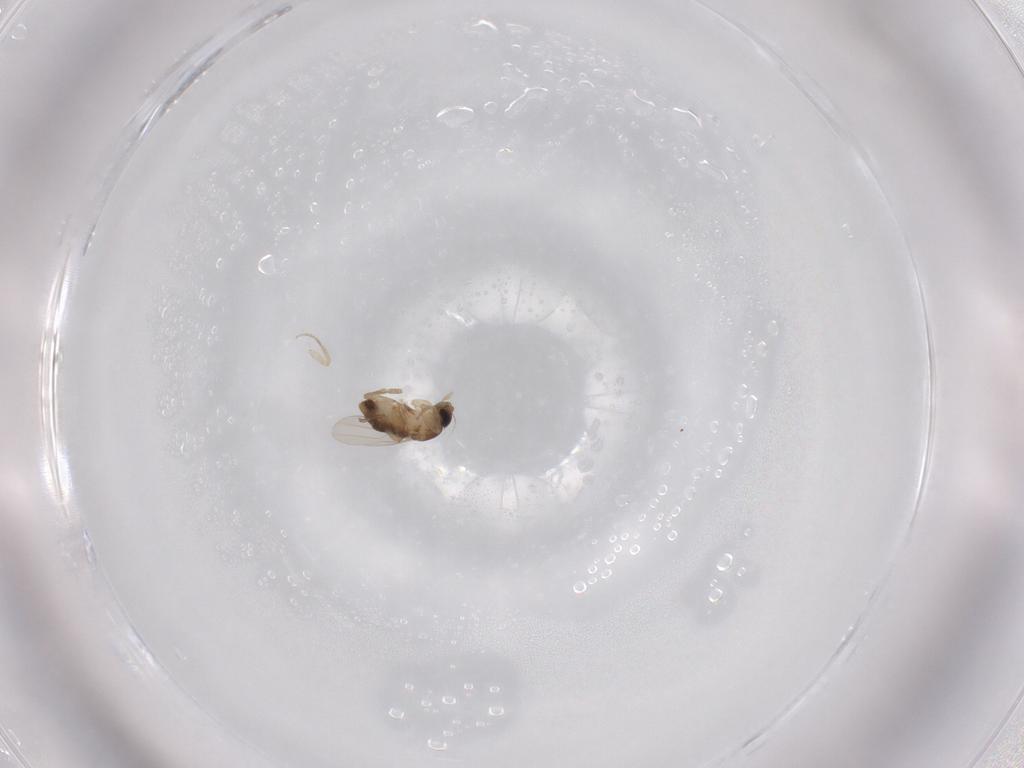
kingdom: Animalia
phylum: Arthropoda
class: Insecta
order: Diptera
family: Phoridae
